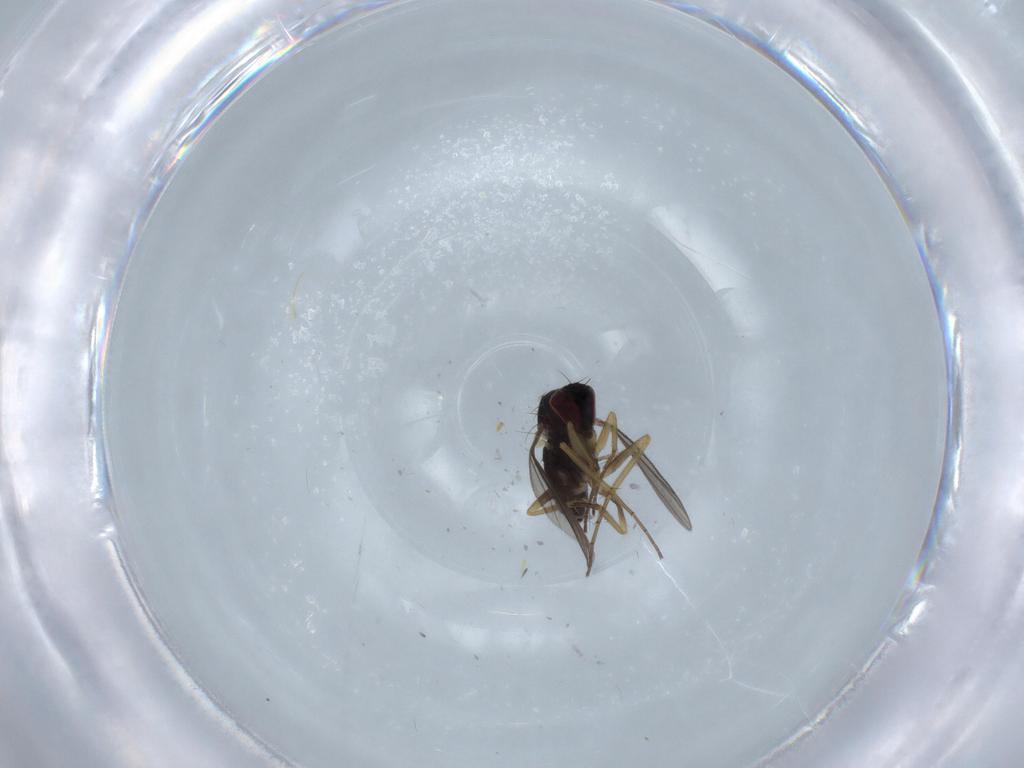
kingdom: Animalia
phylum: Arthropoda
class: Insecta
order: Diptera
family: Dolichopodidae
